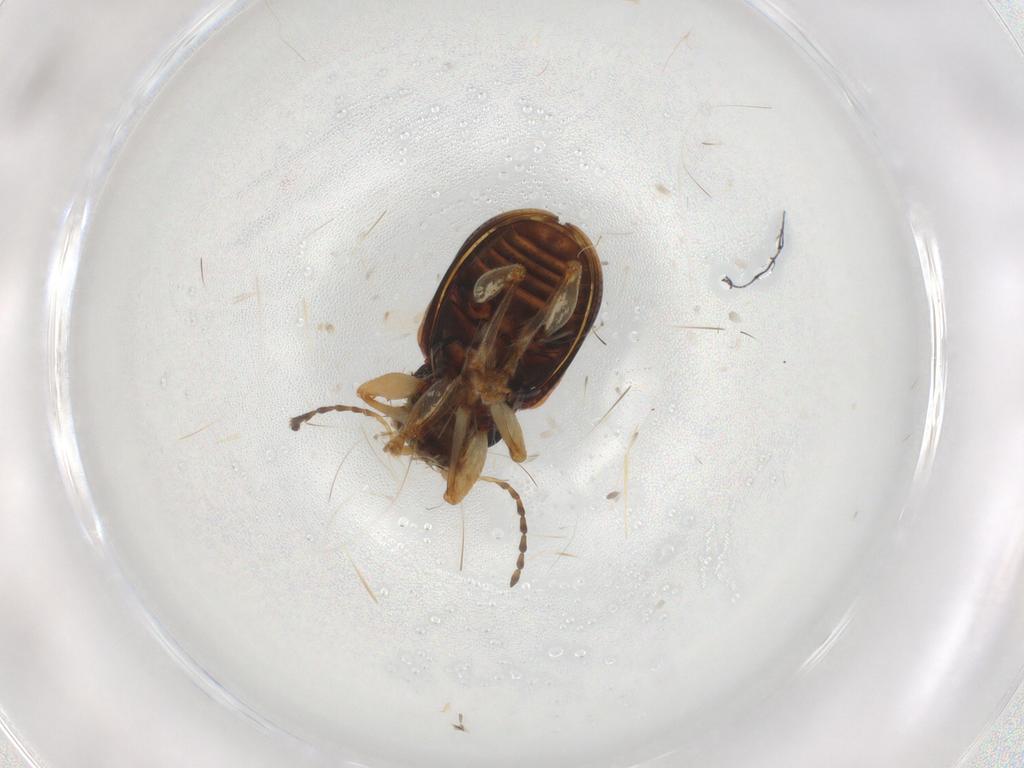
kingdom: Animalia
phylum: Arthropoda
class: Insecta
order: Coleoptera
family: Chrysomelidae
